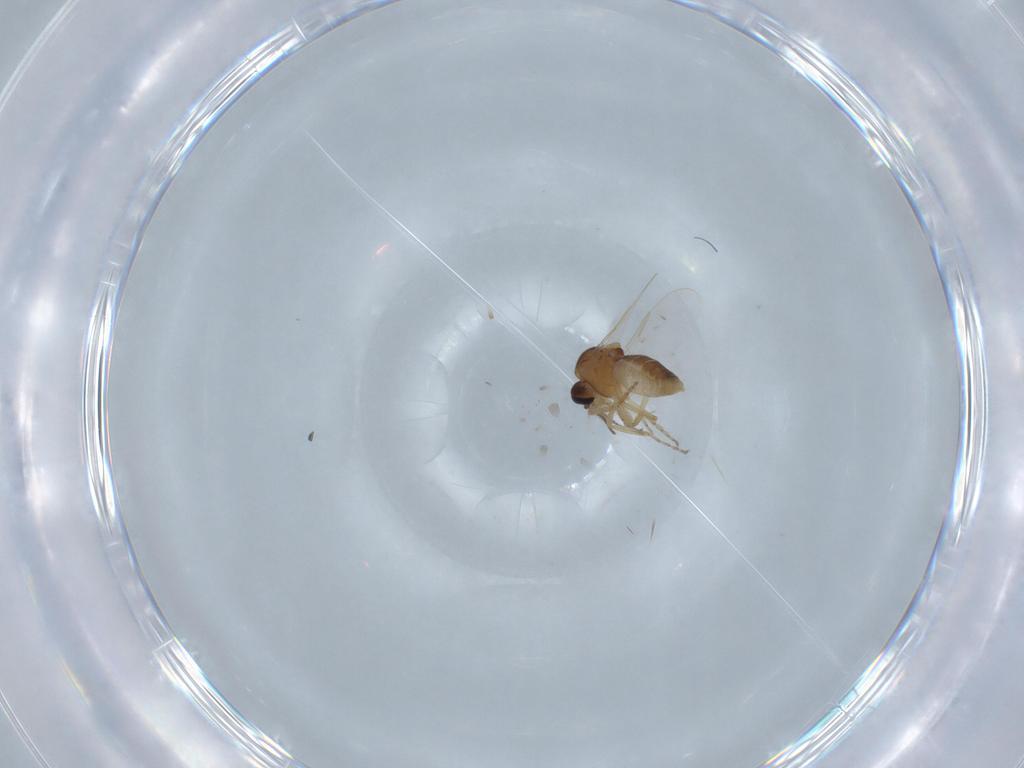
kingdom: Animalia
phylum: Arthropoda
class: Insecta
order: Diptera
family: Ceratopogonidae
